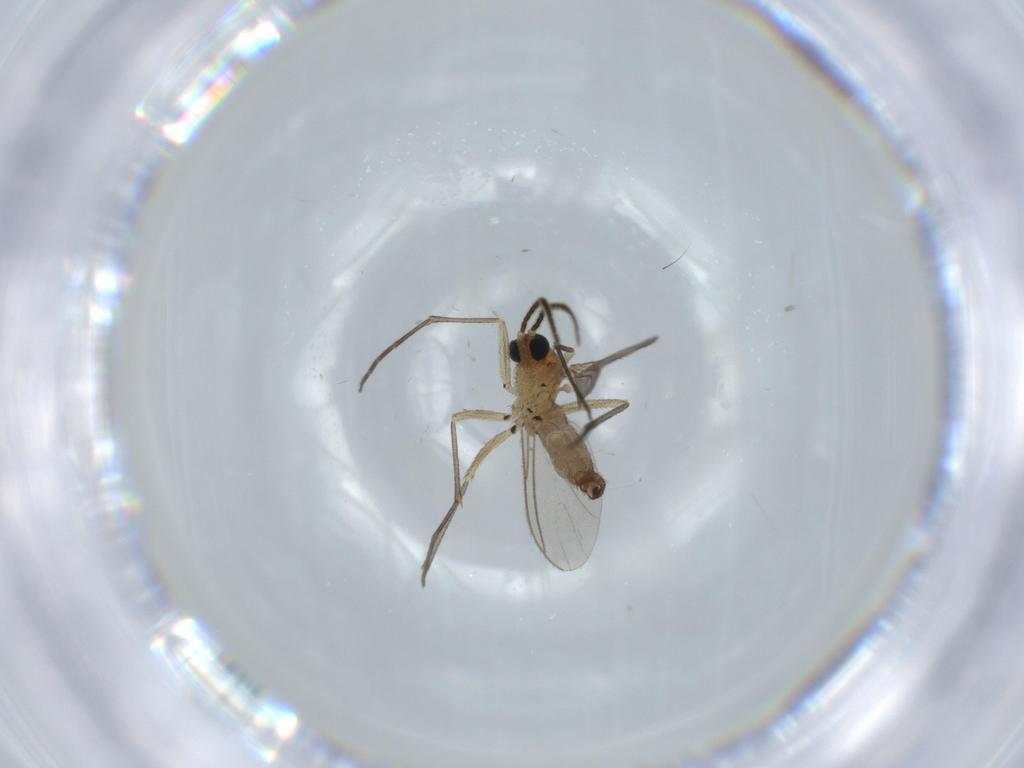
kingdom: Animalia
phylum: Arthropoda
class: Insecta
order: Diptera
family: Sciaridae
